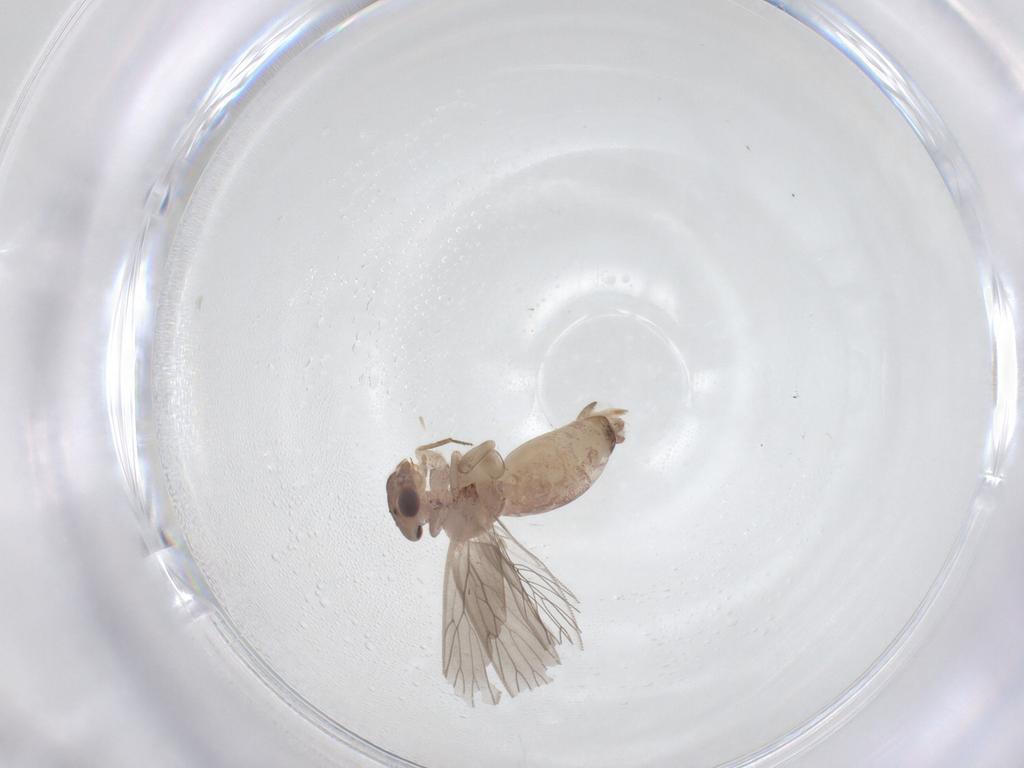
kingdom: Animalia
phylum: Arthropoda
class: Insecta
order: Psocodea
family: Lepidopsocidae
